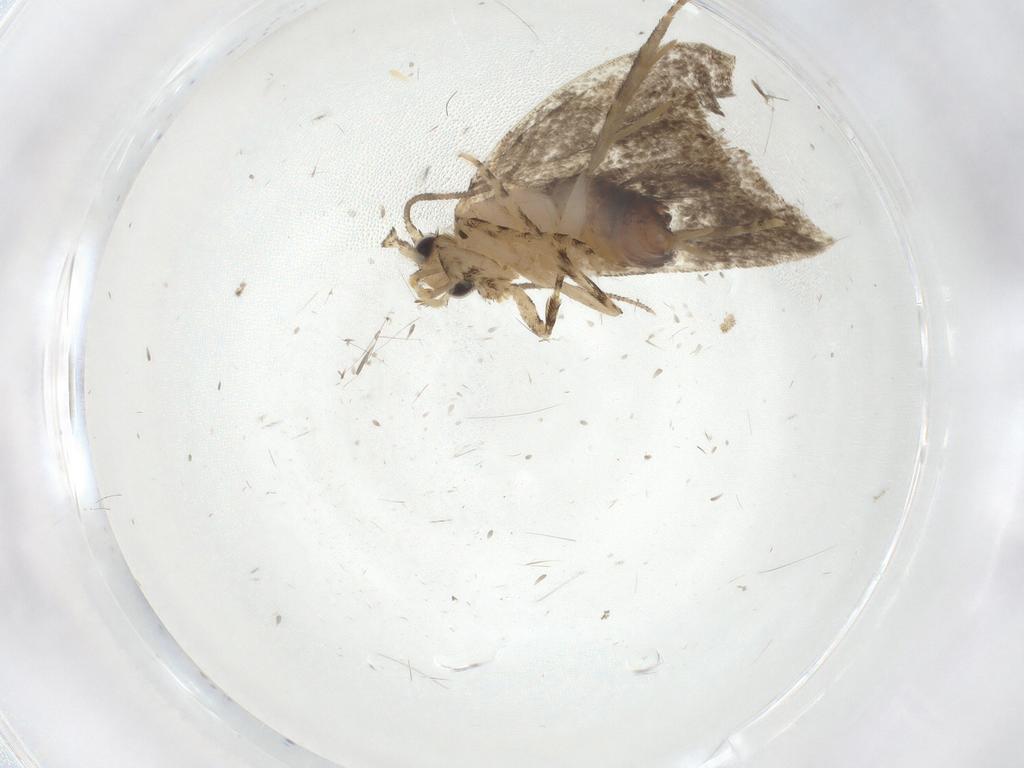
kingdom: Animalia
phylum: Arthropoda
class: Insecta
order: Lepidoptera
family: Tineidae
